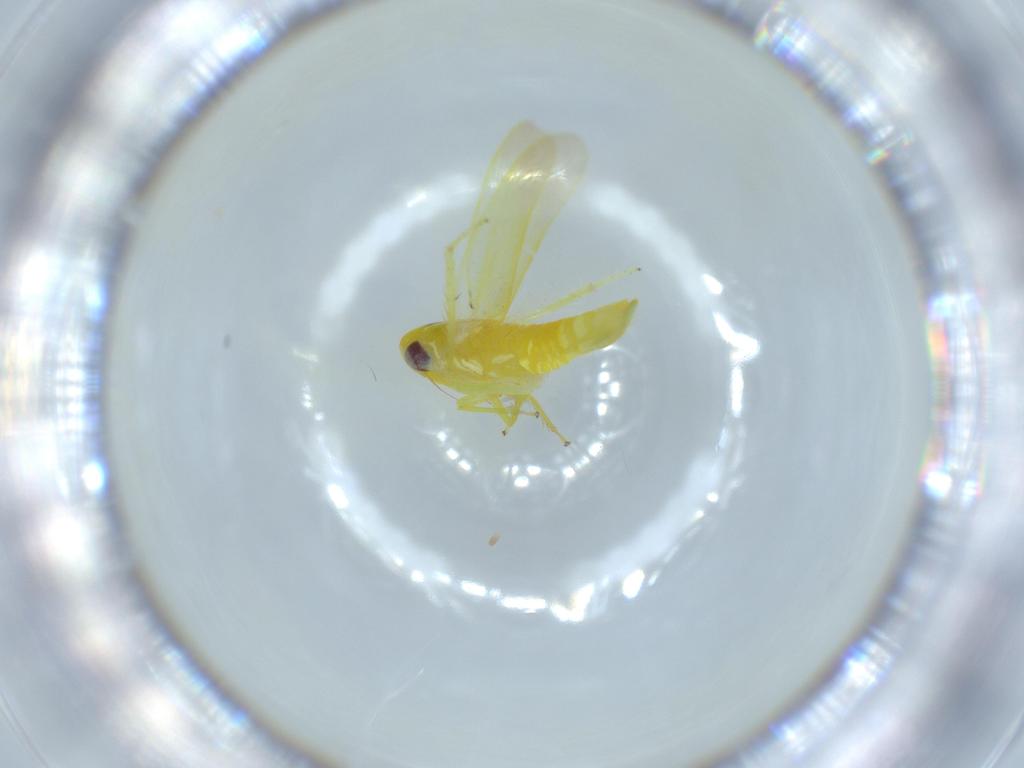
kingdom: Animalia
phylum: Arthropoda
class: Insecta
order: Hemiptera
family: Cicadellidae
